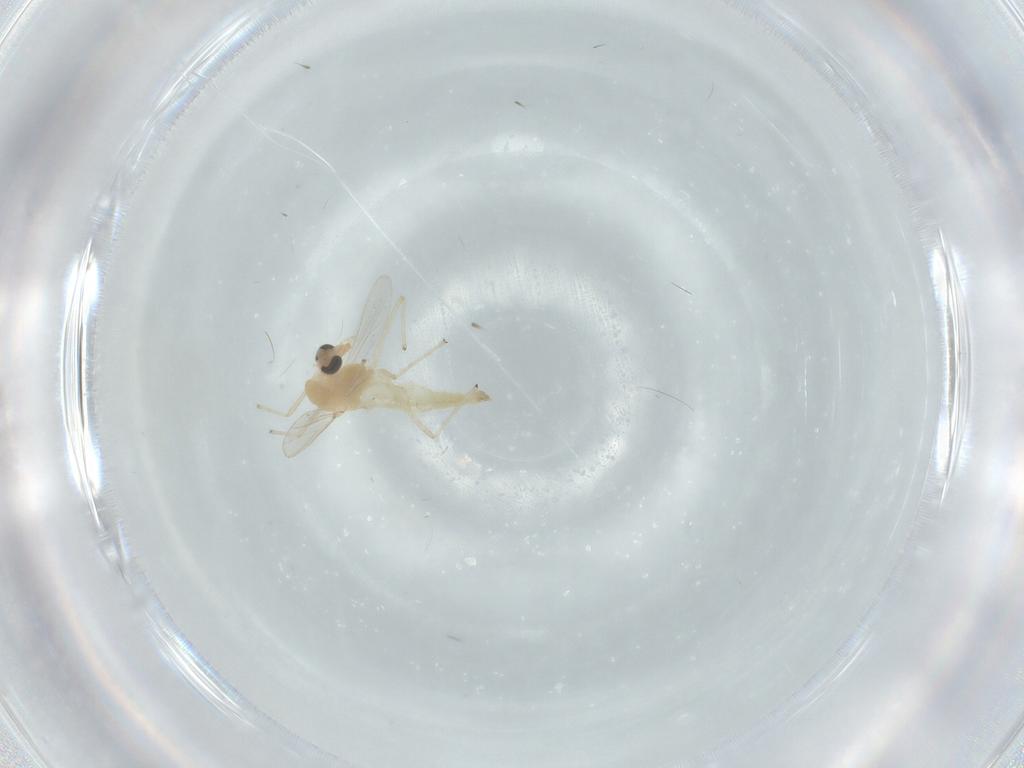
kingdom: Animalia
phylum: Arthropoda
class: Insecta
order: Diptera
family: Chironomidae
